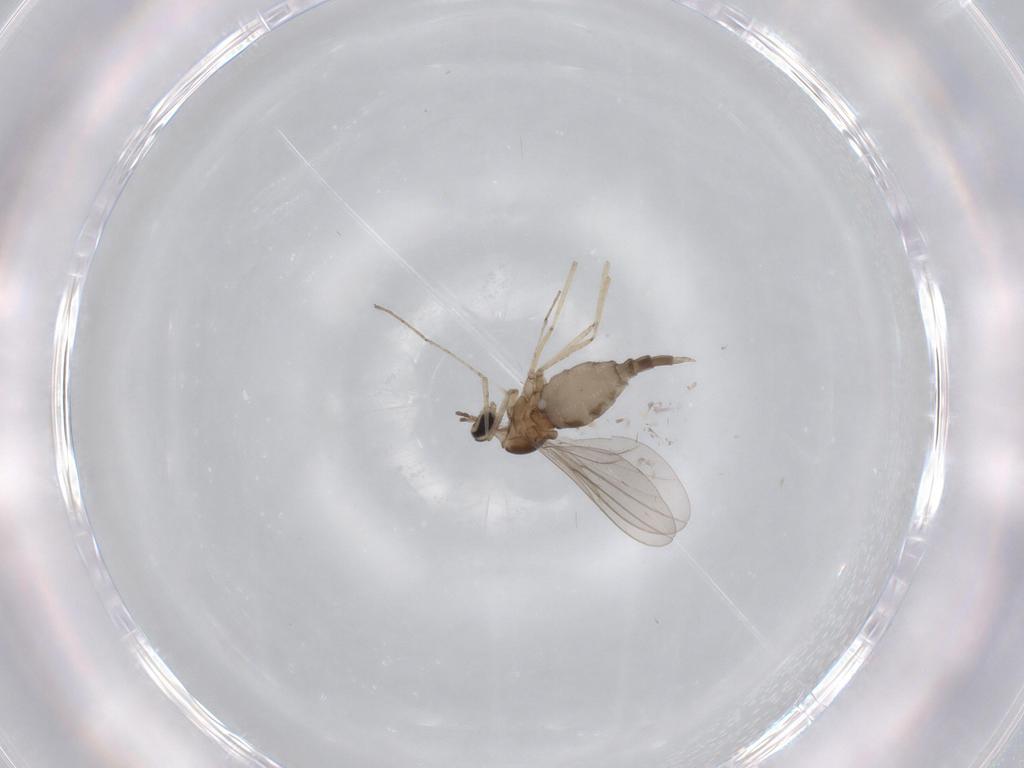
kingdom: Animalia
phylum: Arthropoda
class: Insecta
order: Diptera
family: Cecidomyiidae
